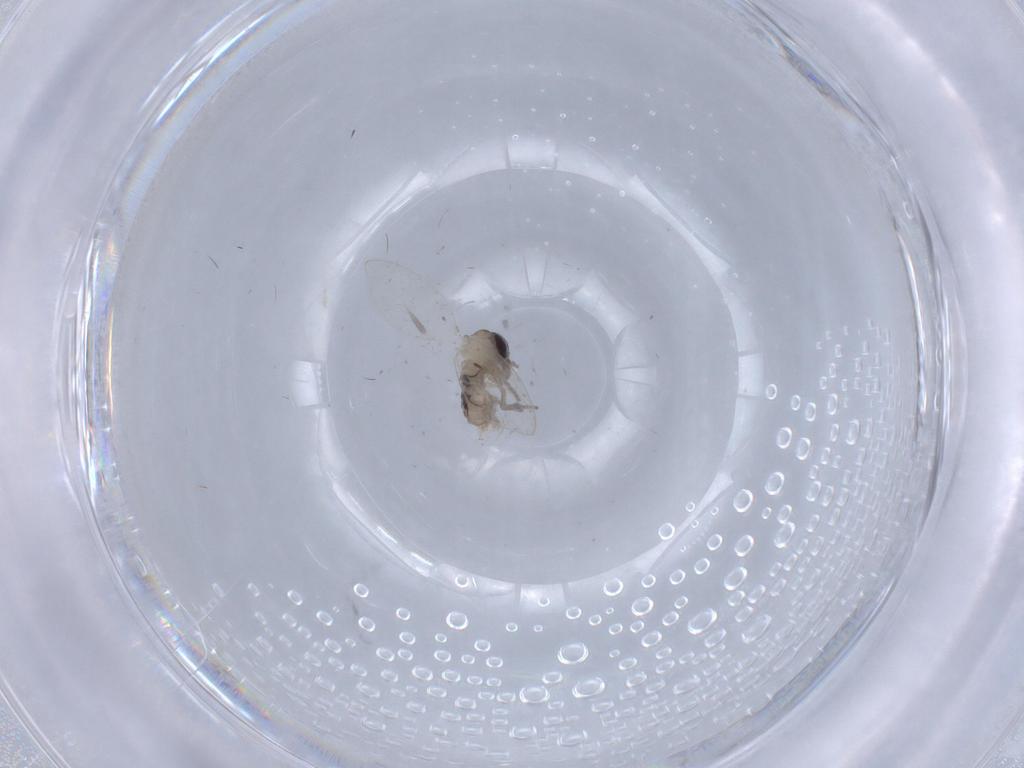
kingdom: Animalia
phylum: Arthropoda
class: Insecta
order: Diptera
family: Psychodidae
